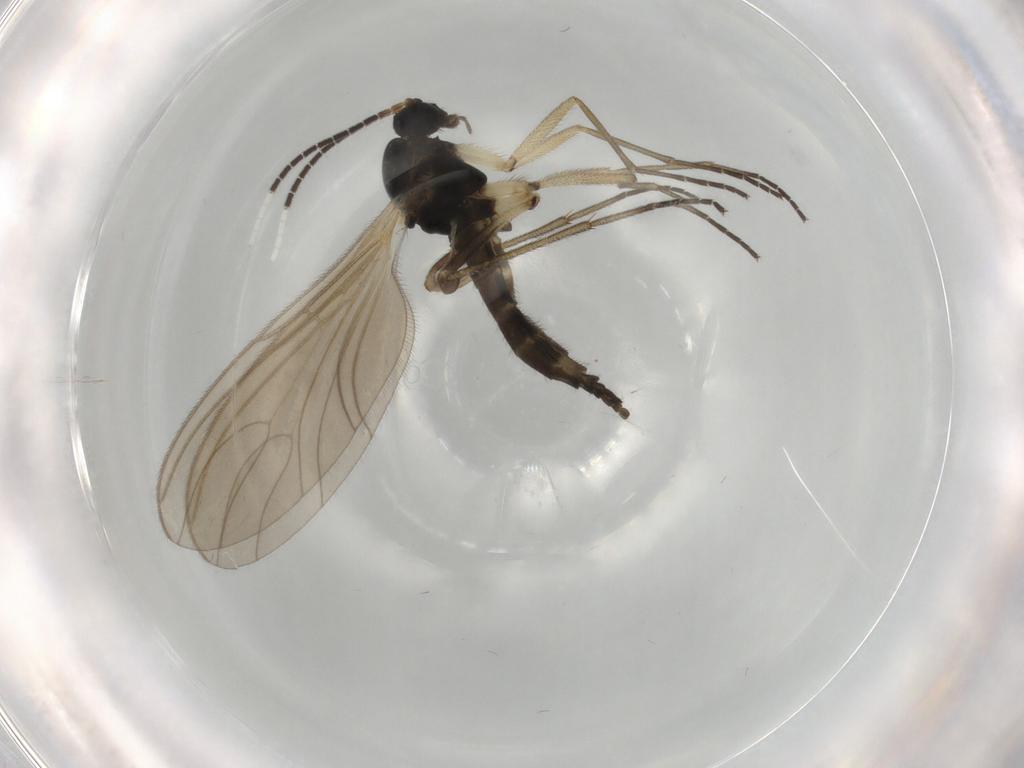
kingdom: Animalia
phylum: Arthropoda
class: Insecta
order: Diptera
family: Sciaridae
